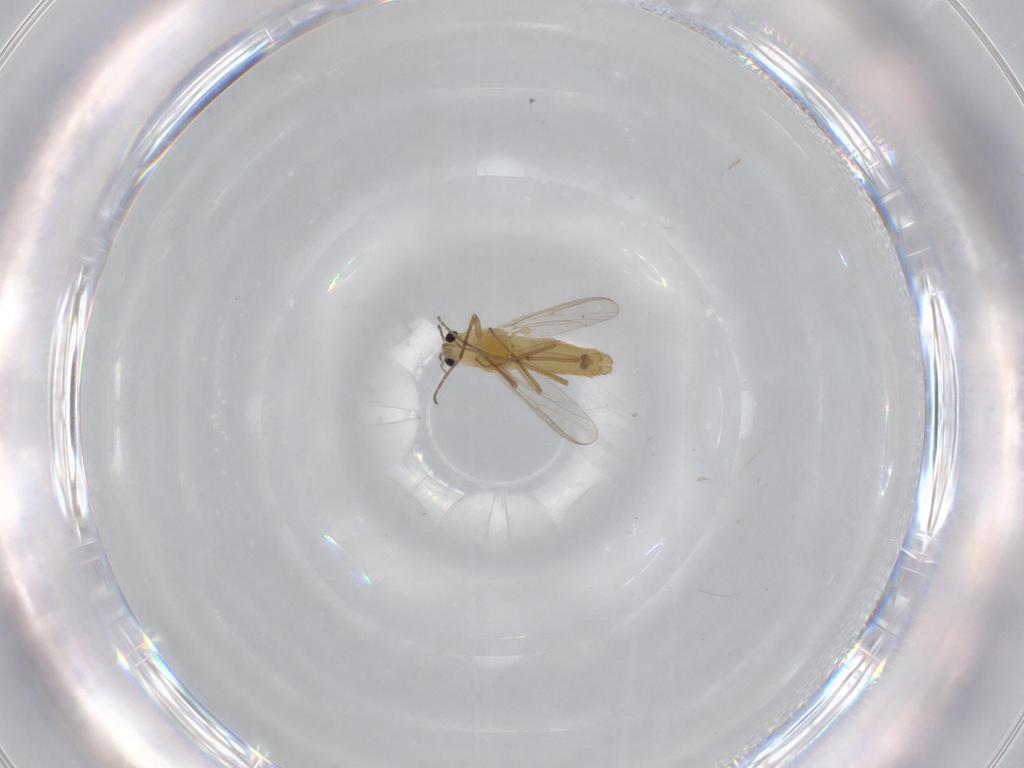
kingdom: Animalia
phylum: Arthropoda
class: Insecta
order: Diptera
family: Chironomidae
